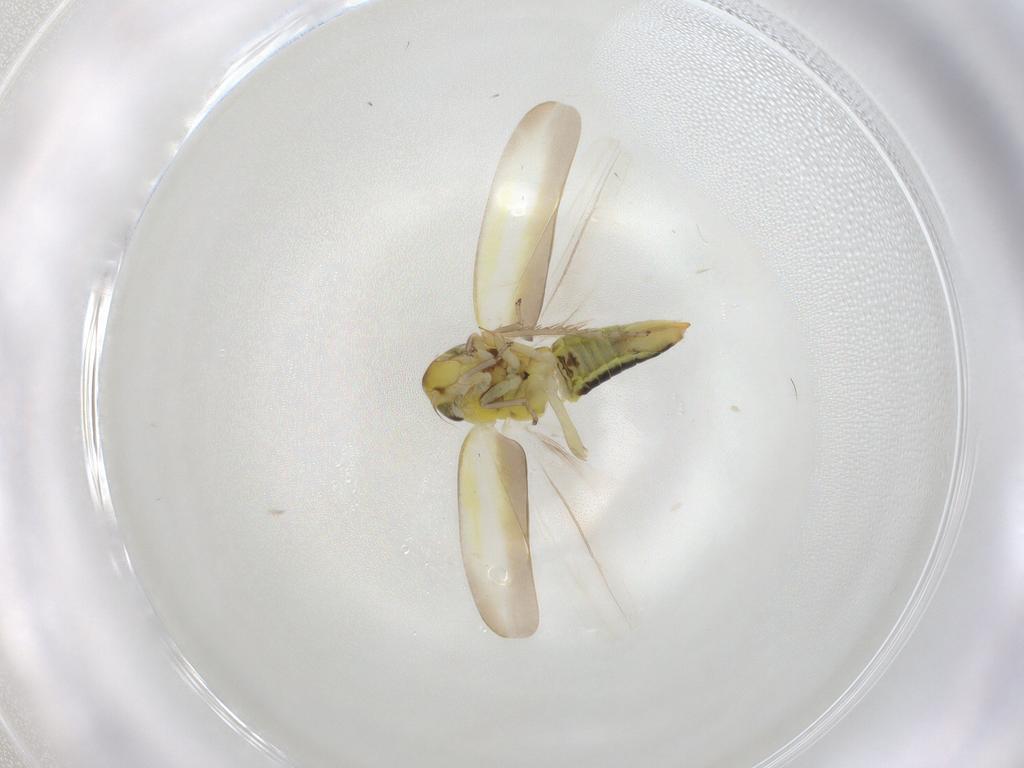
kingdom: Animalia
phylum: Arthropoda
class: Insecta
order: Hemiptera
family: Cicadellidae
